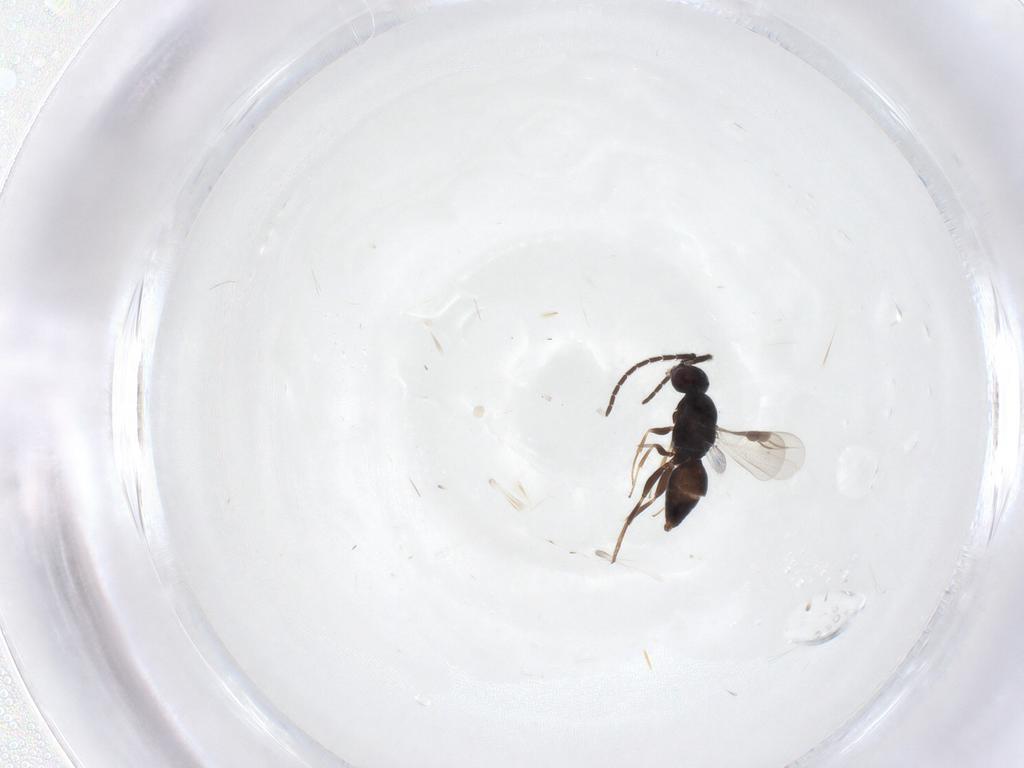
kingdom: Animalia
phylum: Arthropoda
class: Insecta
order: Hymenoptera
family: Megaspilidae
